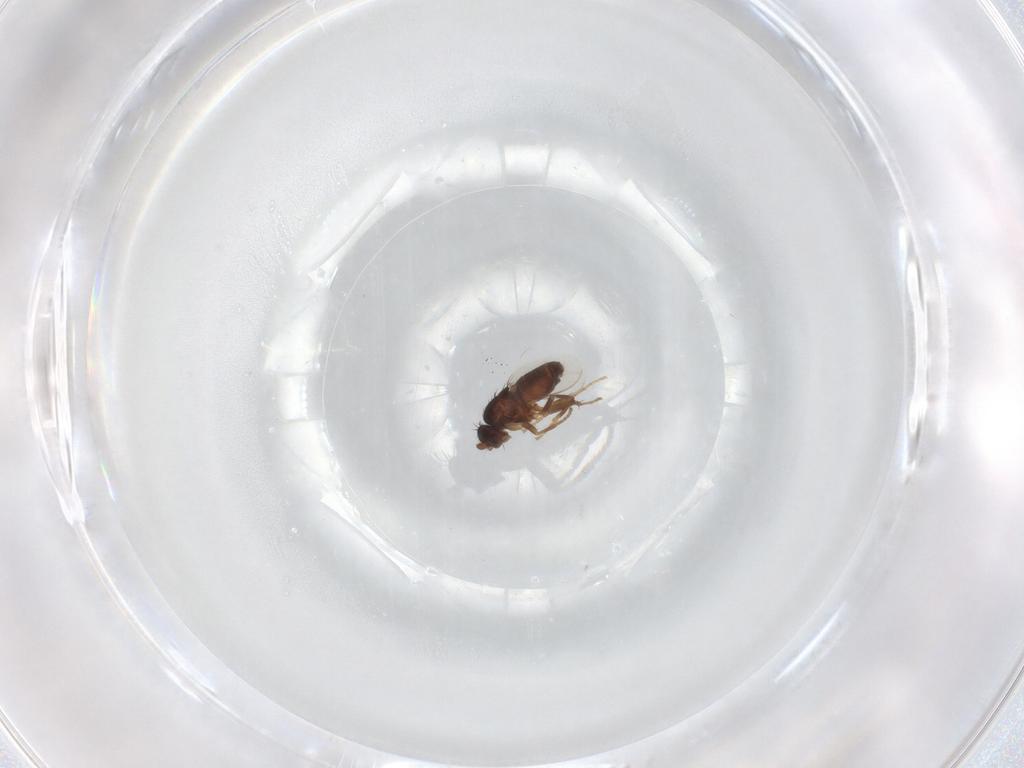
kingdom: Animalia
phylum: Arthropoda
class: Insecta
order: Diptera
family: Sphaeroceridae
